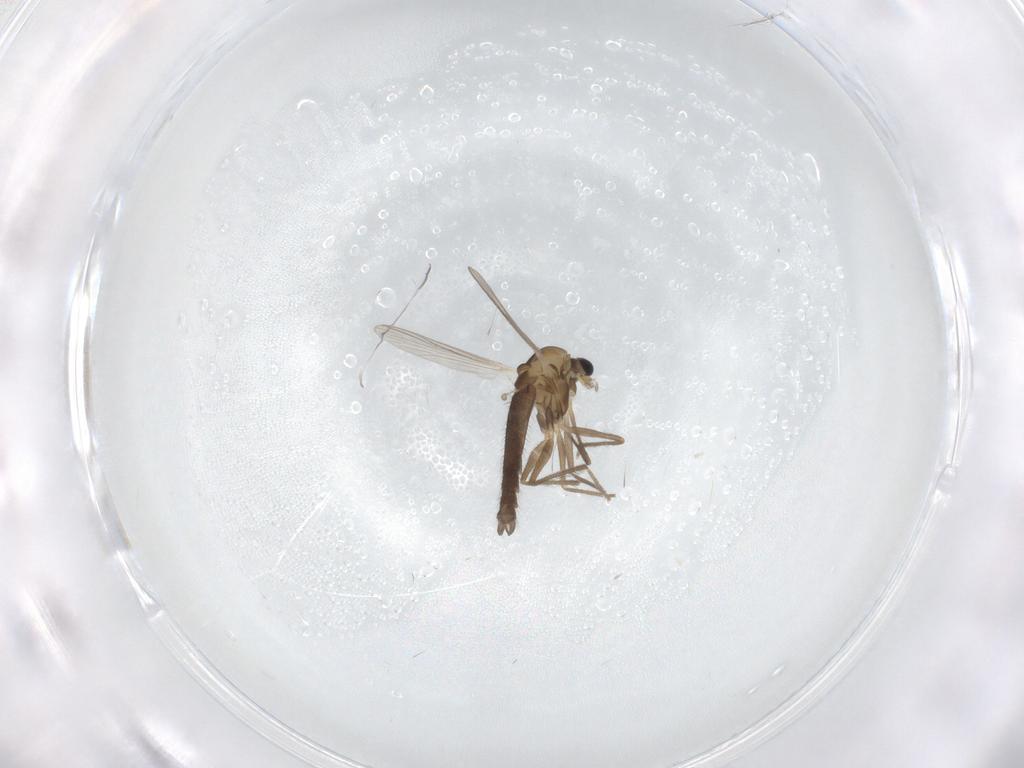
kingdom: Animalia
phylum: Arthropoda
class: Insecta
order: Diptera
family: Chironomidae
